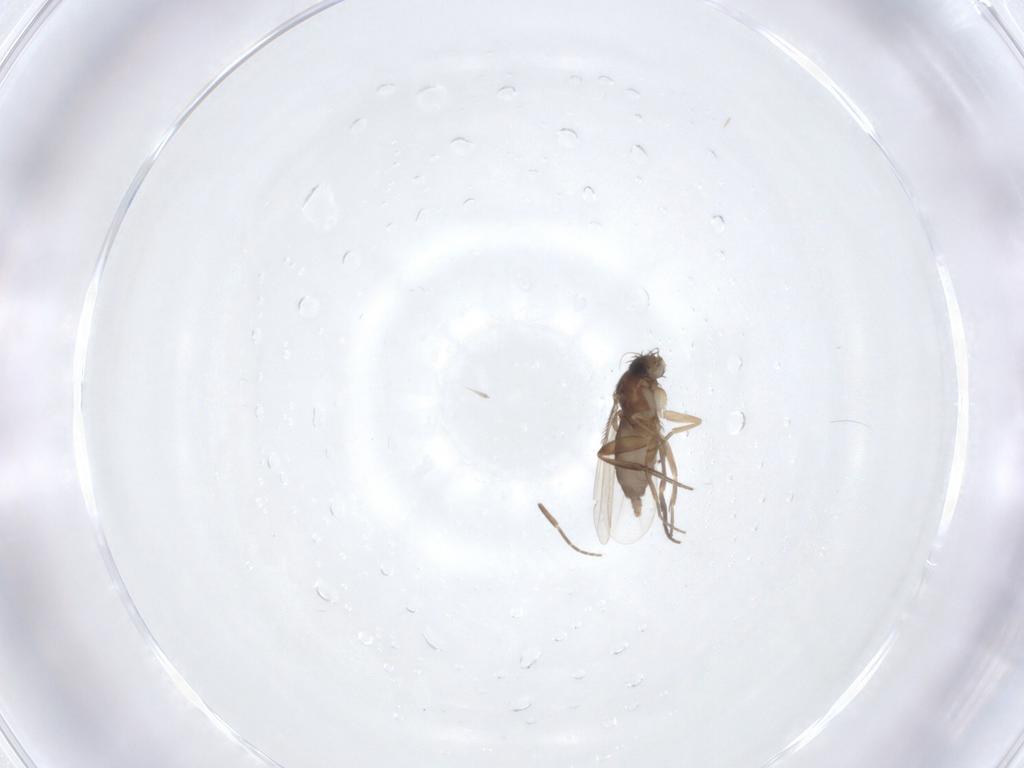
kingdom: Animalia
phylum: Arthropoda
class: Insecta
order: Diptera
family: Phoridae
